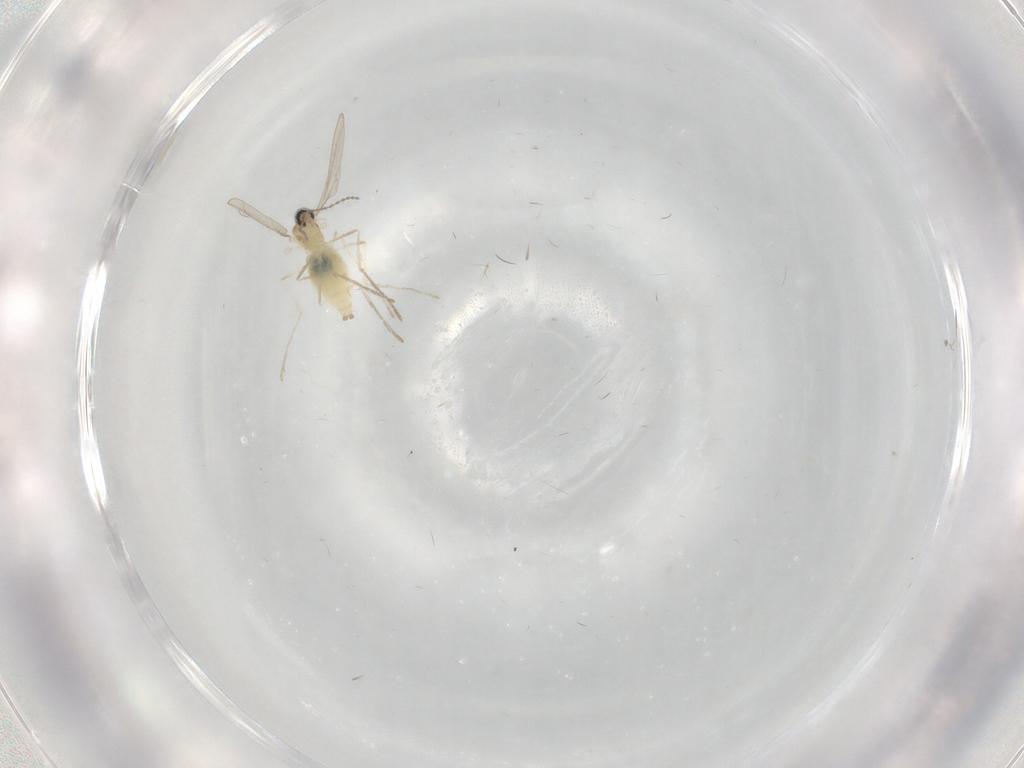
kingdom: Animalia
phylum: Arthropoda
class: Insecta
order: Diptera
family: Cecidomyiidae
